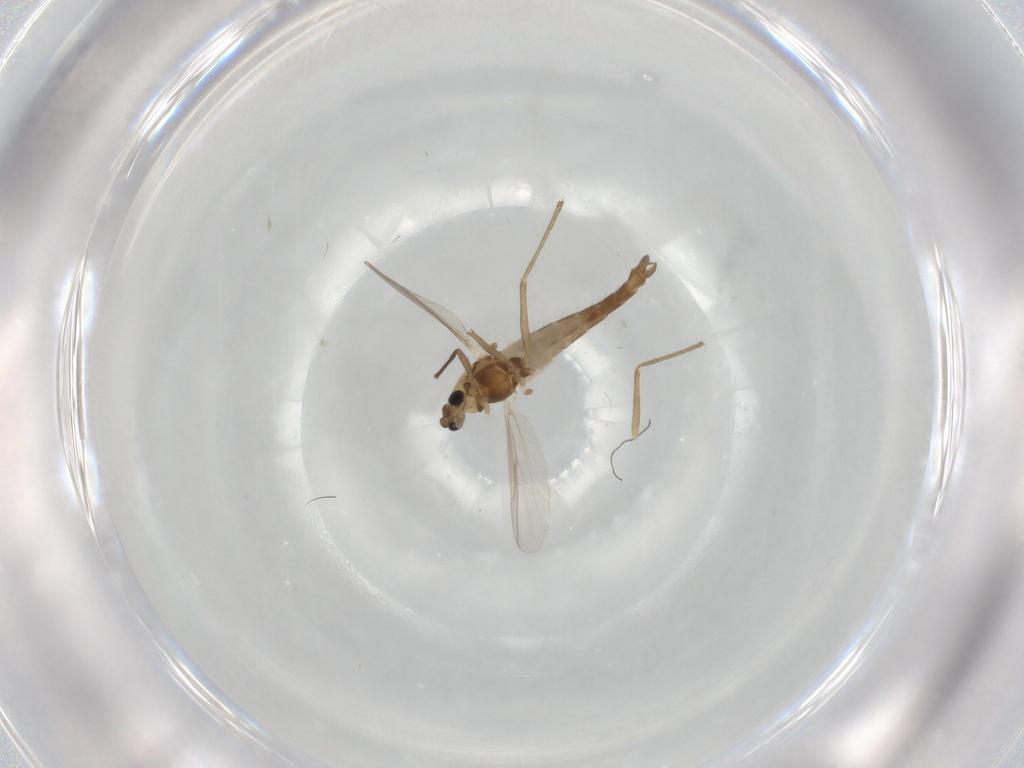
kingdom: Animalia
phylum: Arthropoda
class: Insecta
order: Diptera
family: Chironomidae
